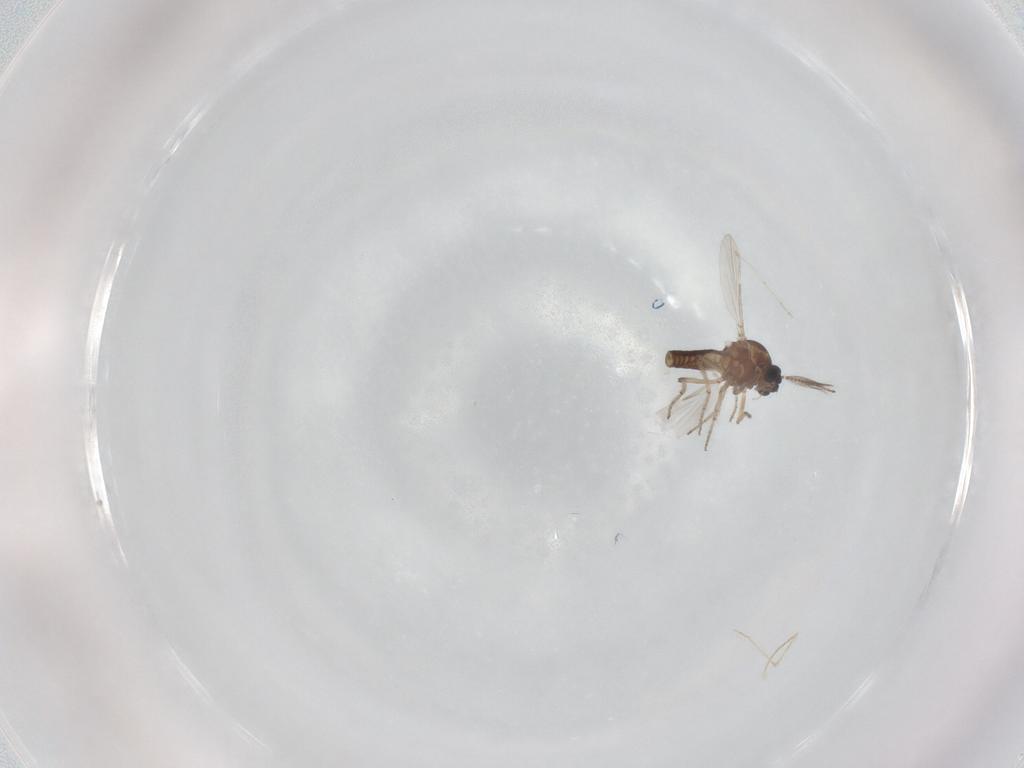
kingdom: Animalia
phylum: Arthropoda
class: Insecta
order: Diptera
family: Ceratopogonidae
